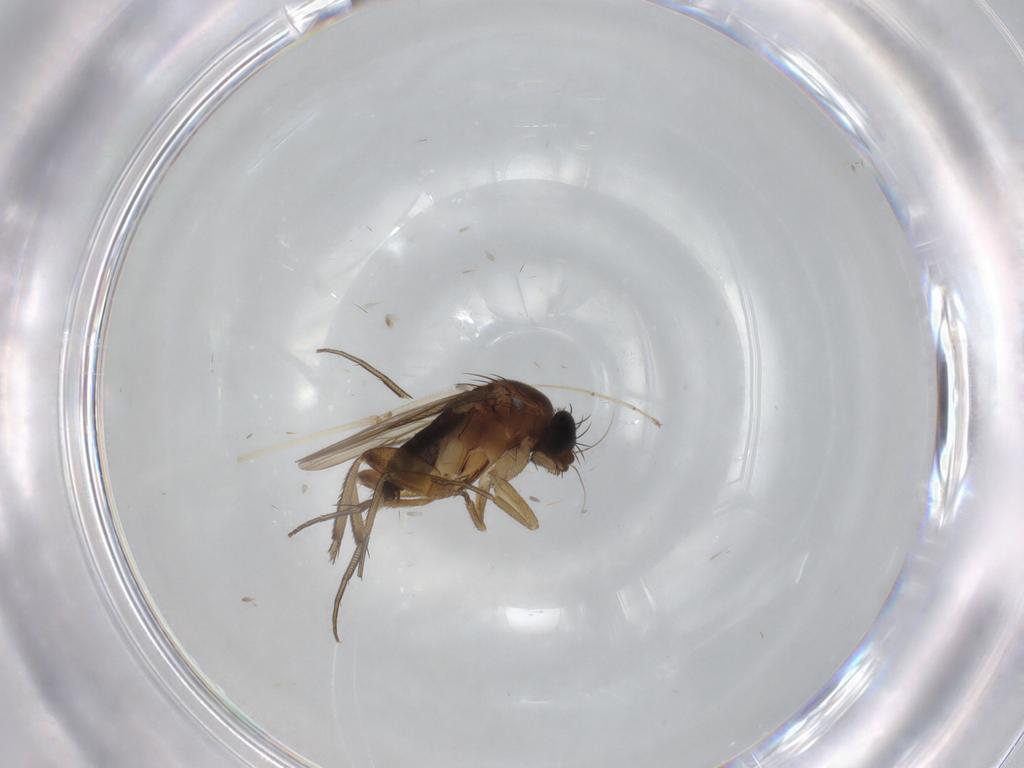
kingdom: Animalia
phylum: Arthropoda
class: Insecta
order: Diptera
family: Phoridae
